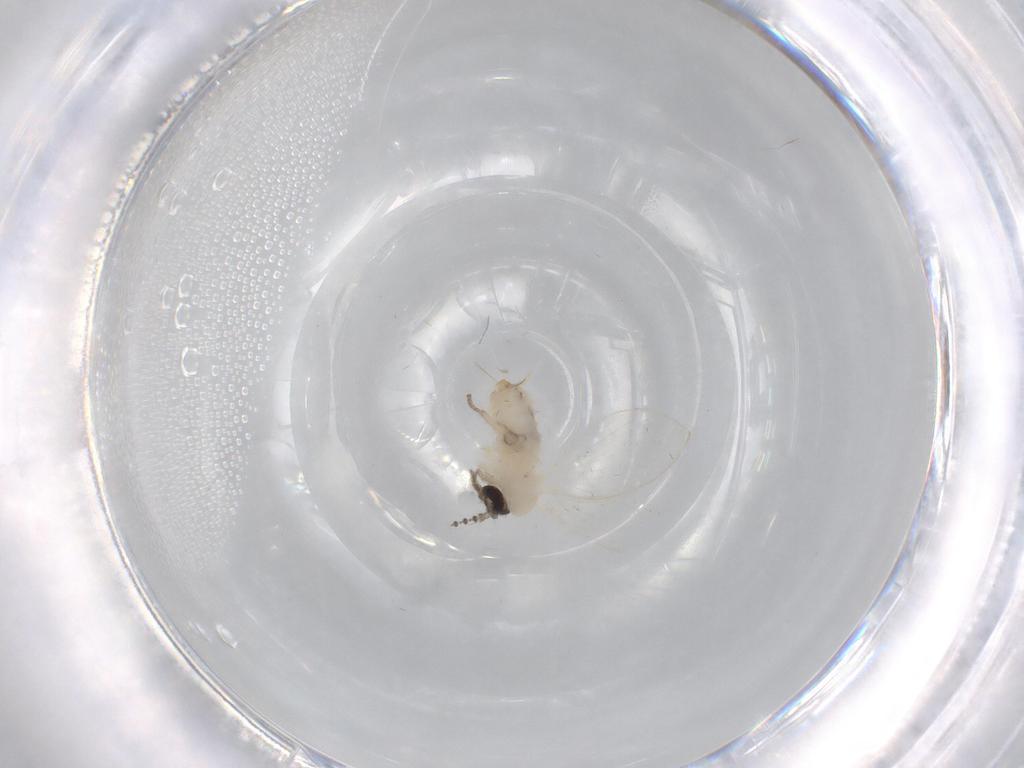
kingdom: Animalia
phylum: Arthropoda
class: Insecta
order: Diptera
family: Psychodidae
